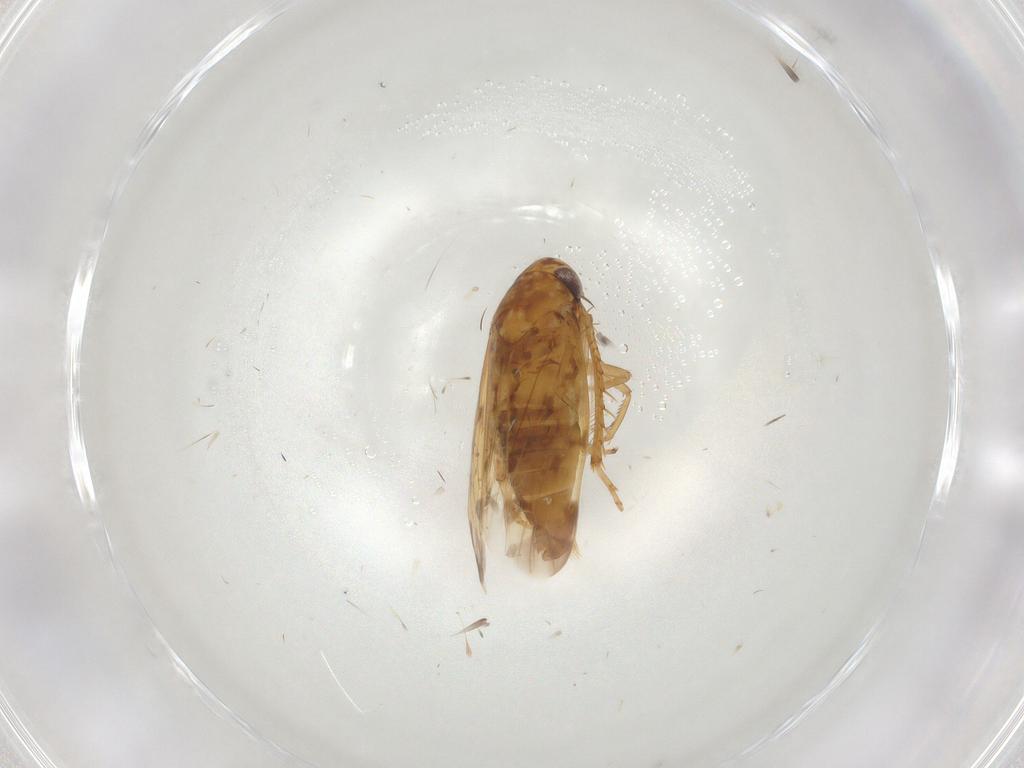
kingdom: Animalia
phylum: Arthropoda
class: Insecta
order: Hemiptera
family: Cicadellidae
